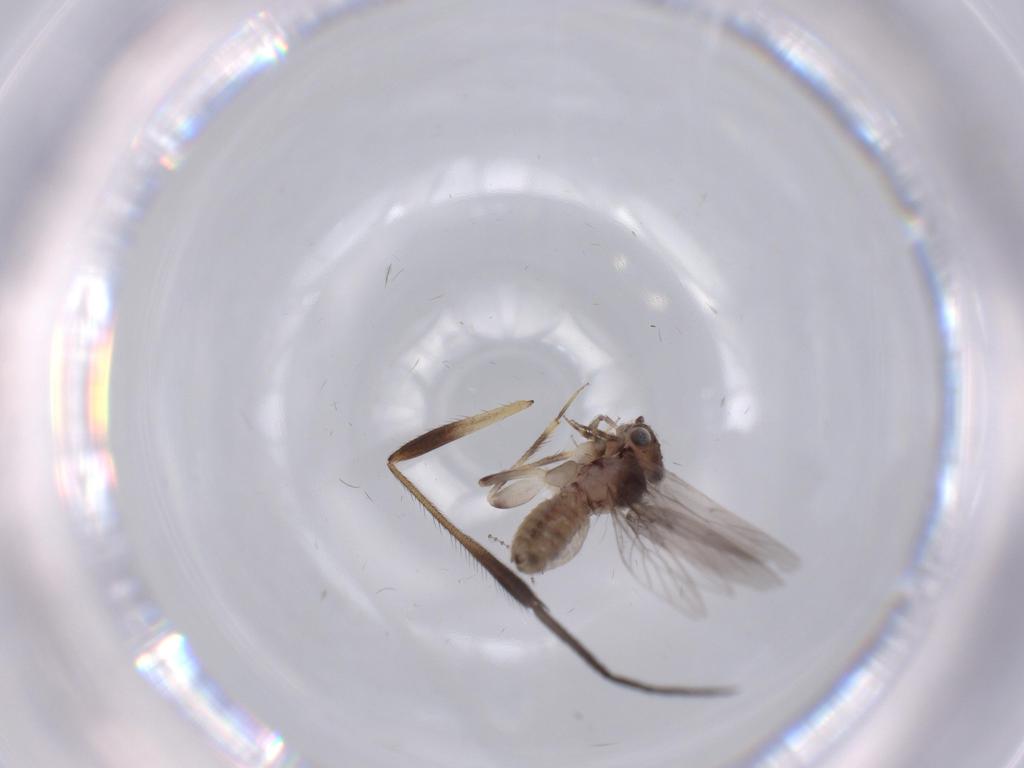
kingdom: Animalia
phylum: Arthropoda
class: Insecta
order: Psocodea
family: Lepidopsocidae
